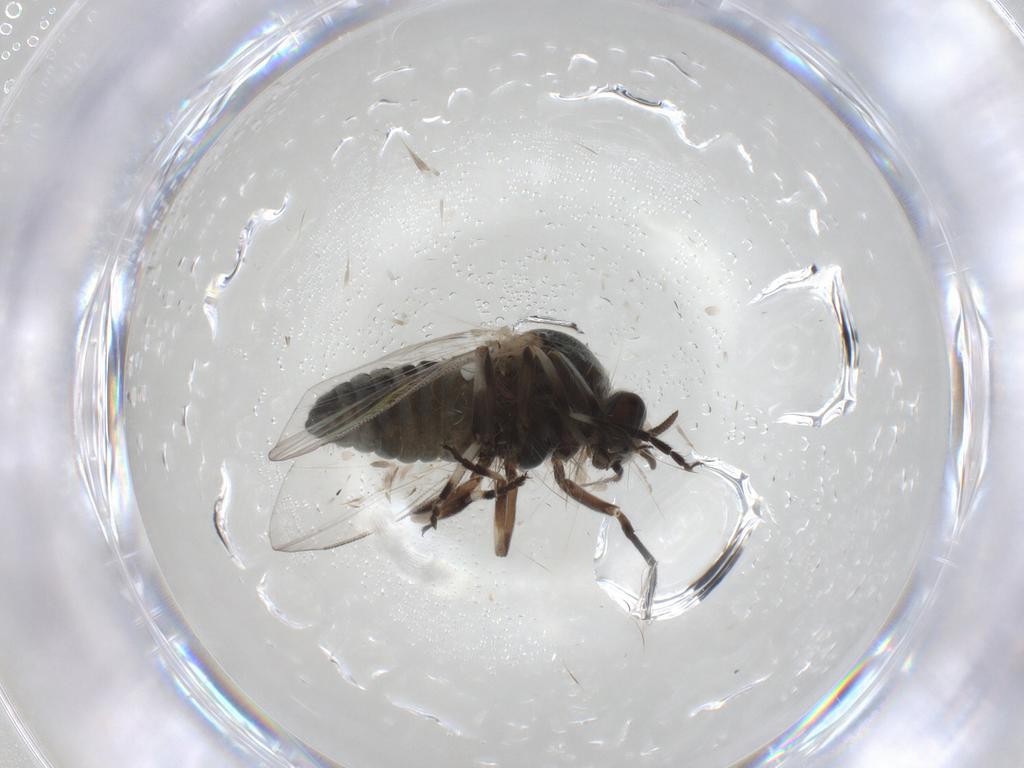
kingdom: Animalia
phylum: Arthropoda
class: Insecta
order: Diptera
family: Simuliidae
